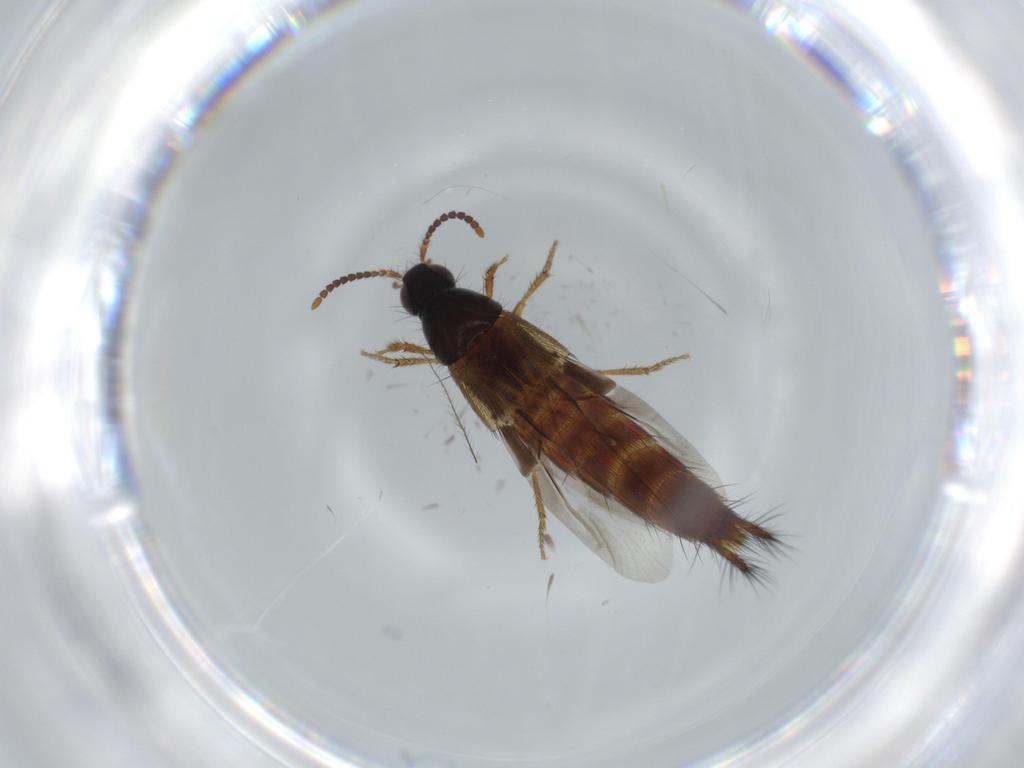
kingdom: Animalia
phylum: Arthropoda
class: Insecta
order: Coleoptera
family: Staphylinidae
